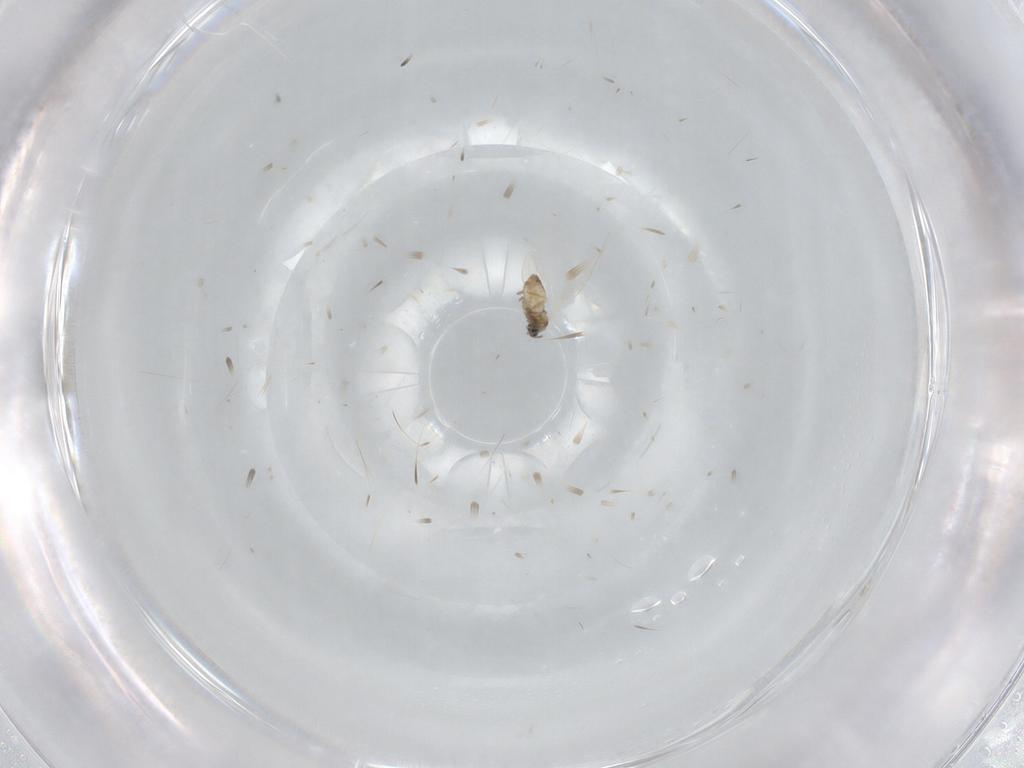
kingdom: Animalia
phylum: Arthropoda
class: Insecta
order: Diptera
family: Cecidomyiidae
